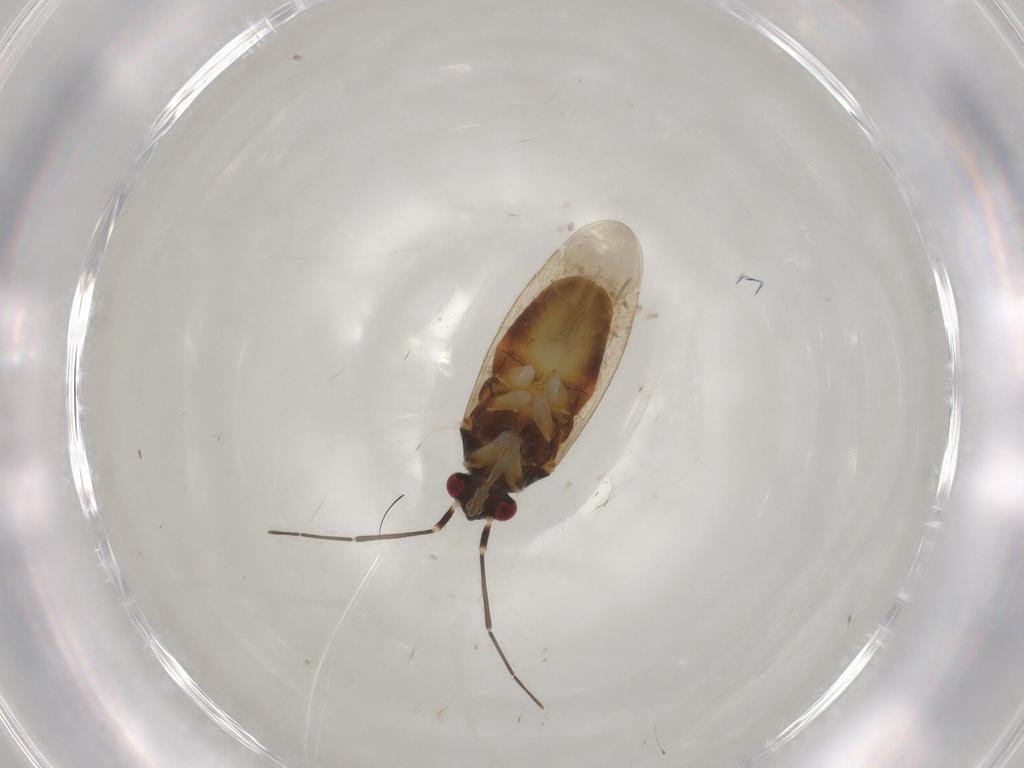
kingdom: Animalia
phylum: Arthropoda
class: Insecta
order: Hemiptera
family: Miridae
